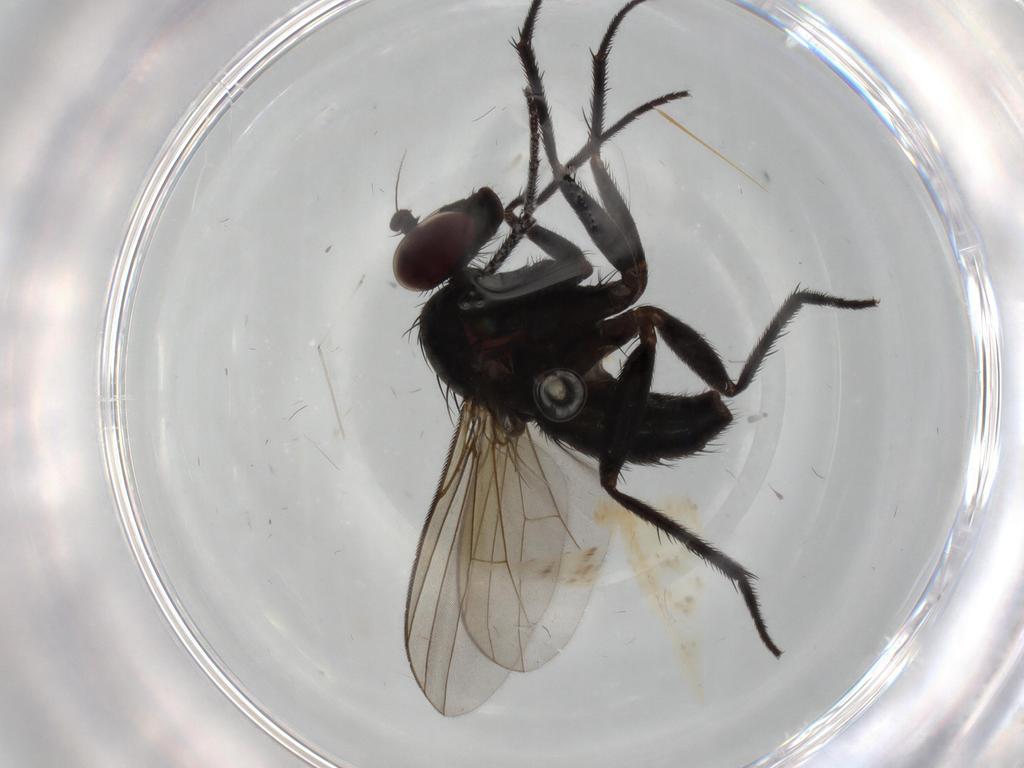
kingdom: Animalia
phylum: Arthropoda
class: Insecta
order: Diptera
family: Dolichopodidae
